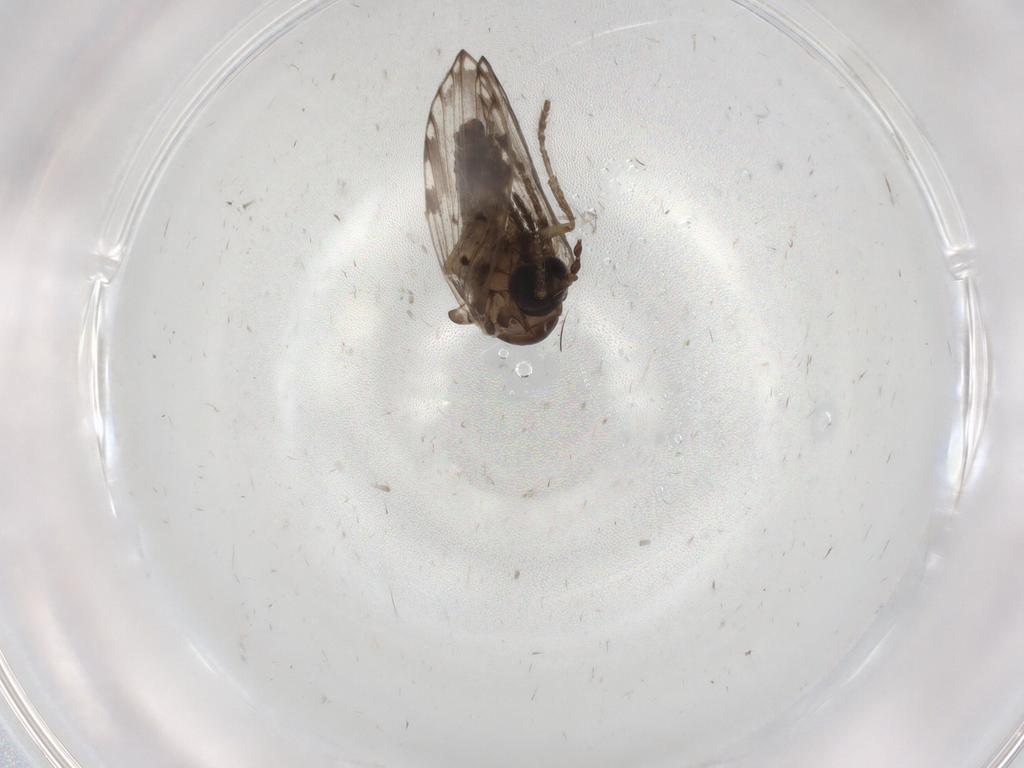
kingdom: Animalia
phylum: Arthropoda
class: Insecta
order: Diptera
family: Psychodidae
